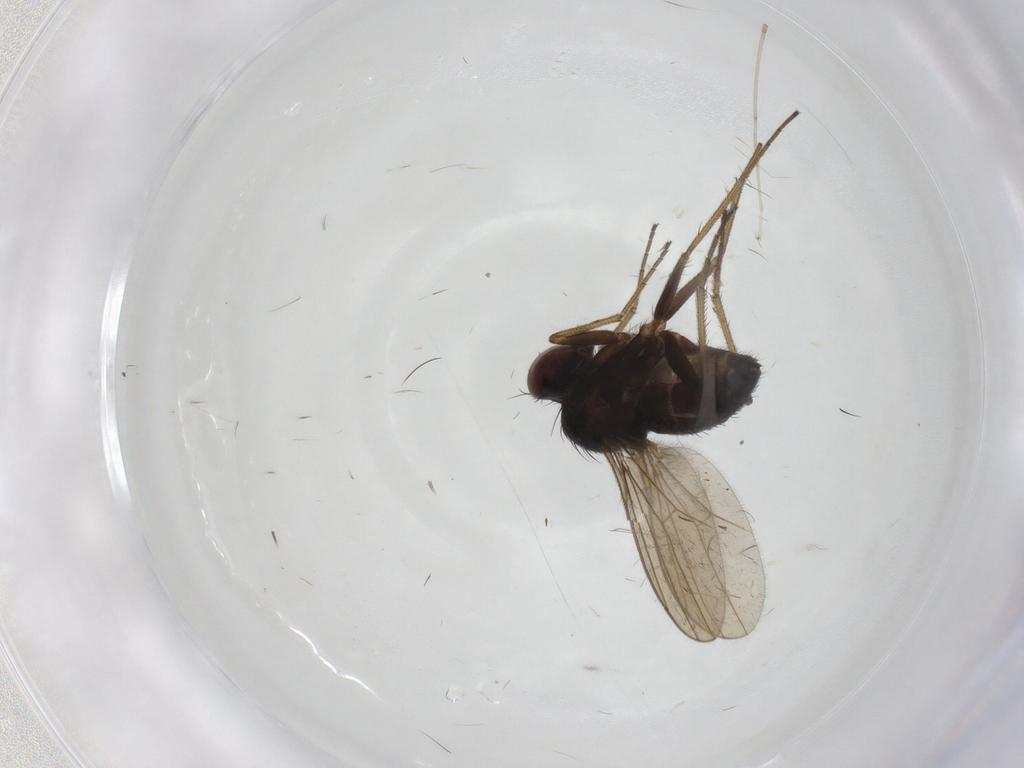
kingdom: Animalia
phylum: Arthropoda
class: Insecta
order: Diptera
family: Dolichopodidae
